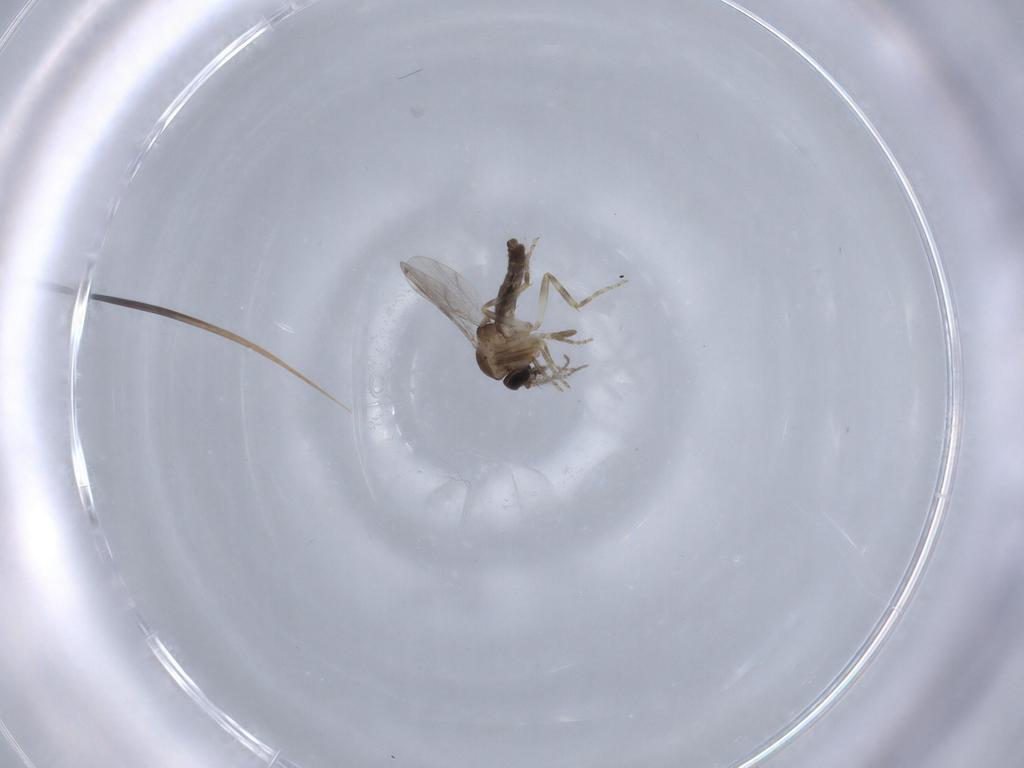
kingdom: Animalia
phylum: Arthropoda
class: Insecta
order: Diptera
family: Ceratopogonidae
